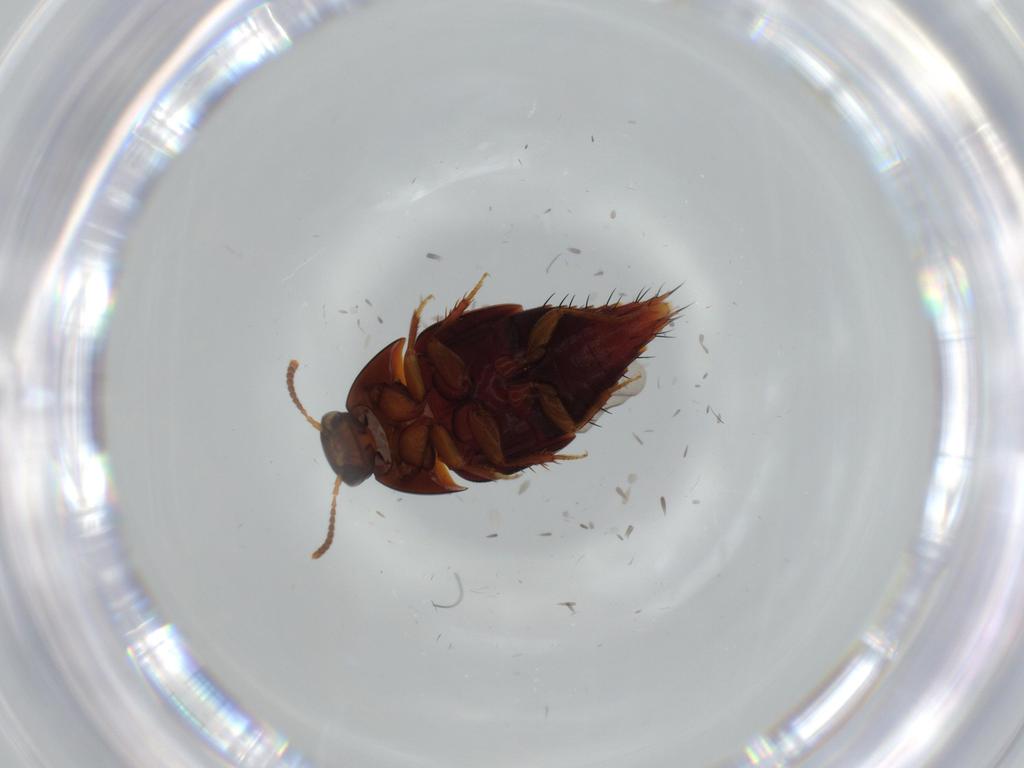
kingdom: Animalia
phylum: Arthropoda
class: Insecta
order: Coleoptera
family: Staphylinidae
